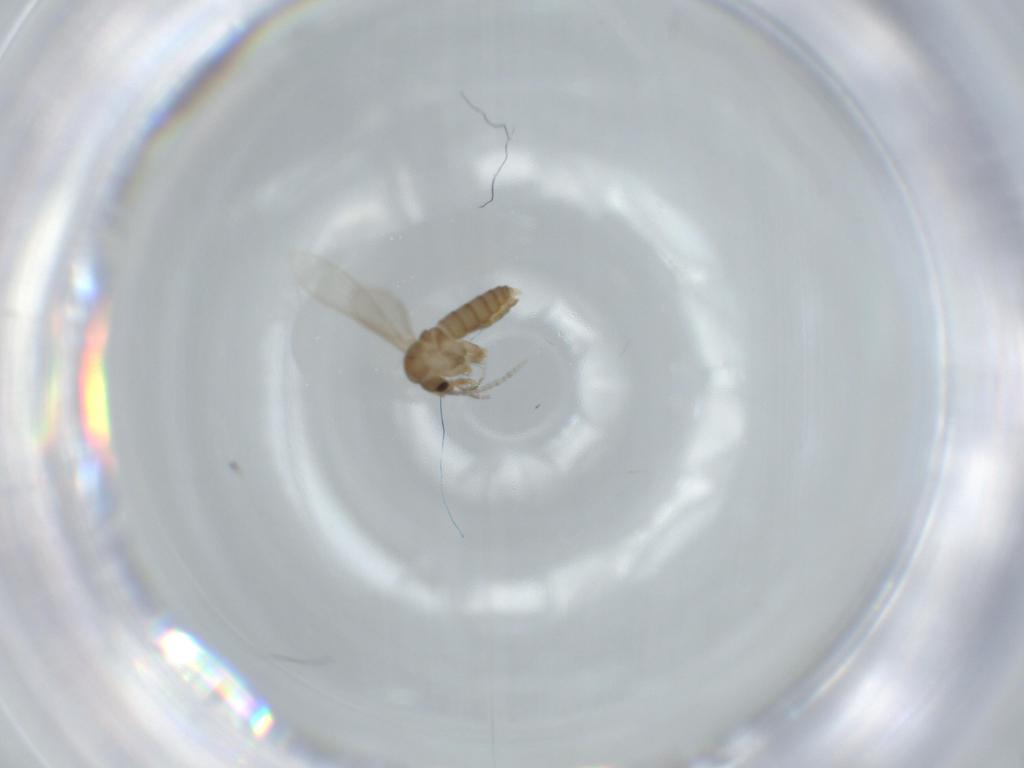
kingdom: Animalia
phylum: Arthropoda
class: Insecta
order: Diptera
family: Psychodidae
